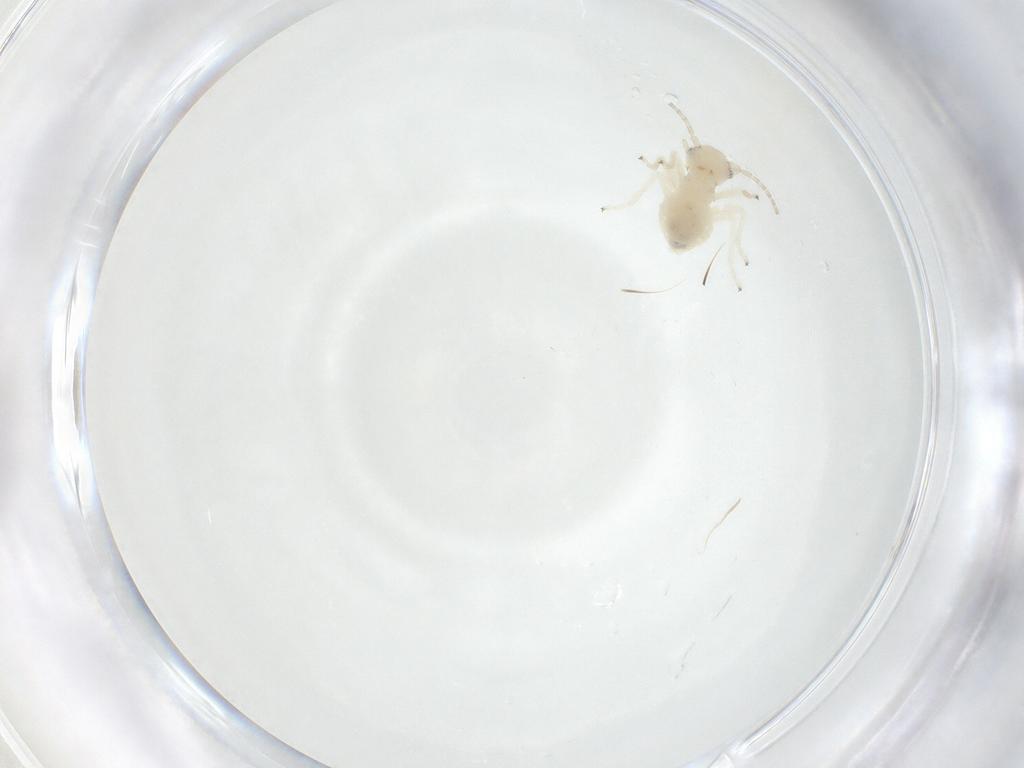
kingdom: Animalia
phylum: Arthropoda
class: Insecta
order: Psocodea
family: Amphipsocidae
